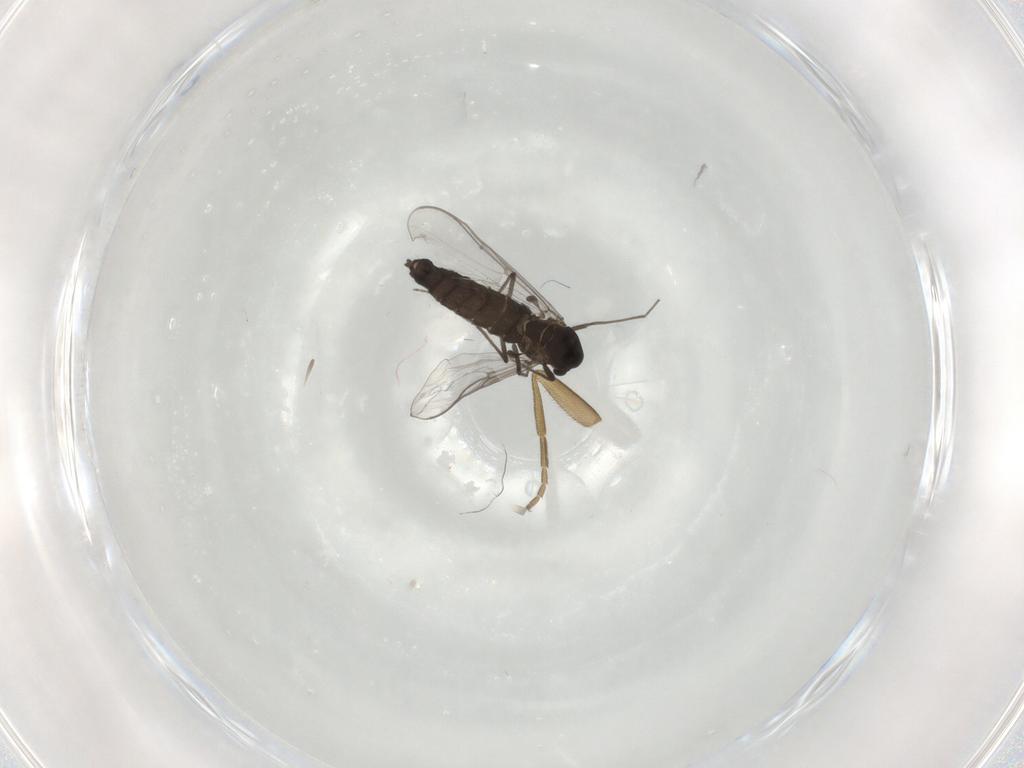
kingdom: Animalia
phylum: Arthropoda
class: Insecta
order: Diptera
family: Chironomidae
